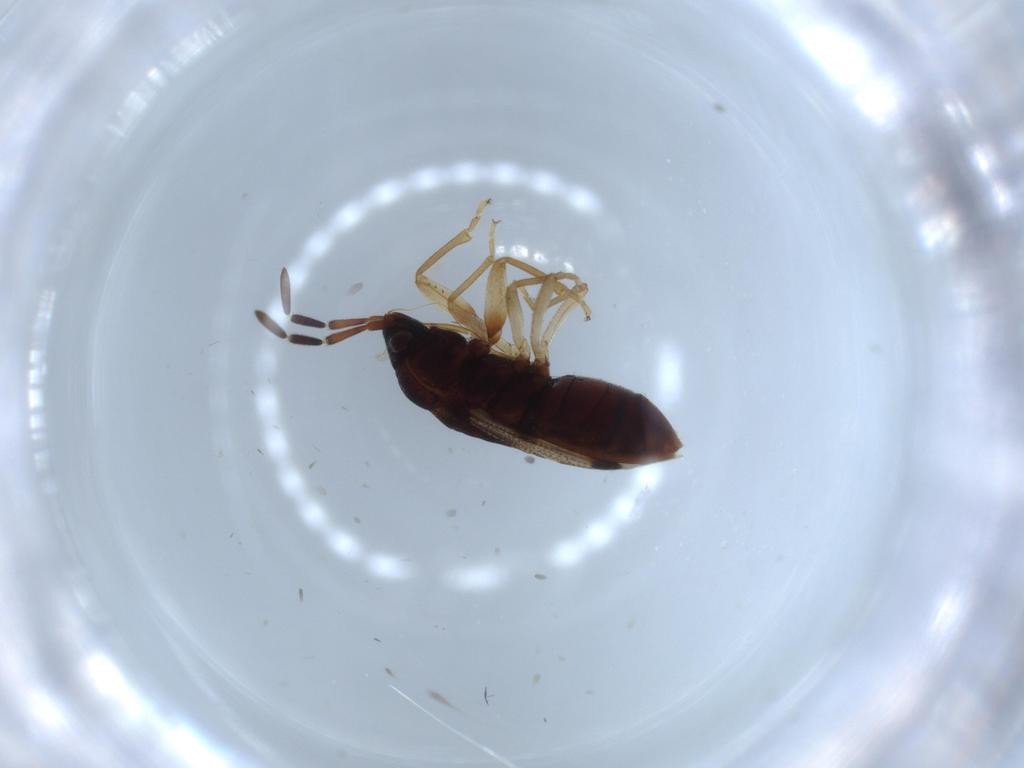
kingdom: Animalia
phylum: Arthropoda
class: Insecta
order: Hemiptera
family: Rhyparochromidae
